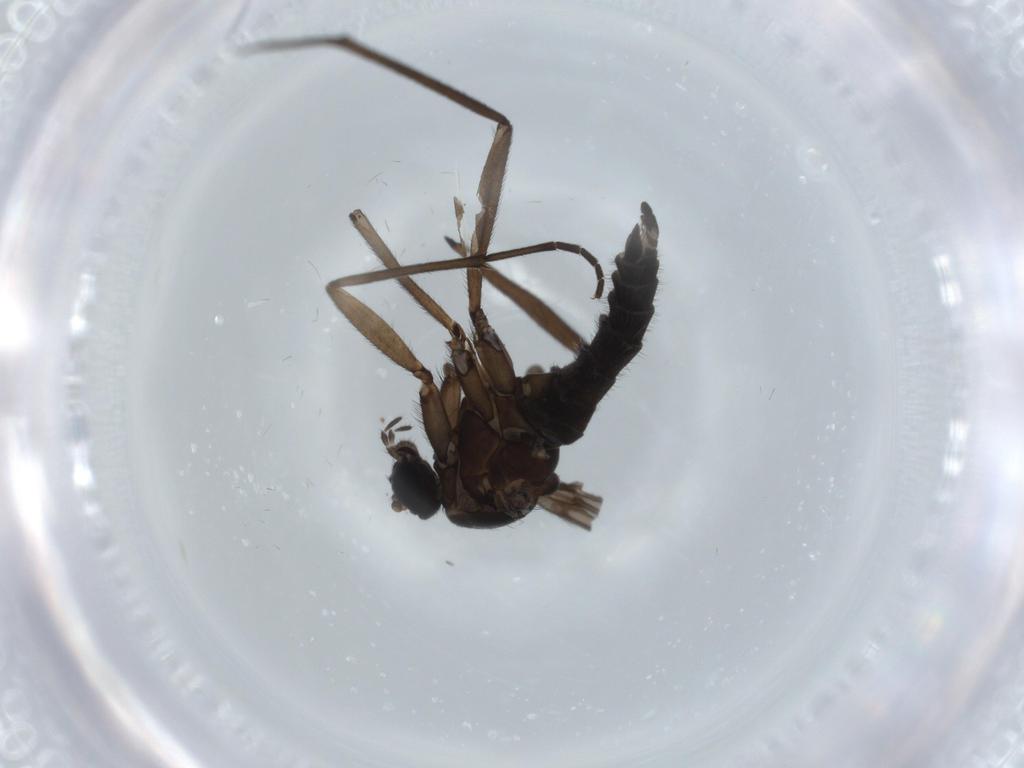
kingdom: Animalia
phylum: Arthropoda
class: Insecta
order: Diptera
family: Sciaridae
